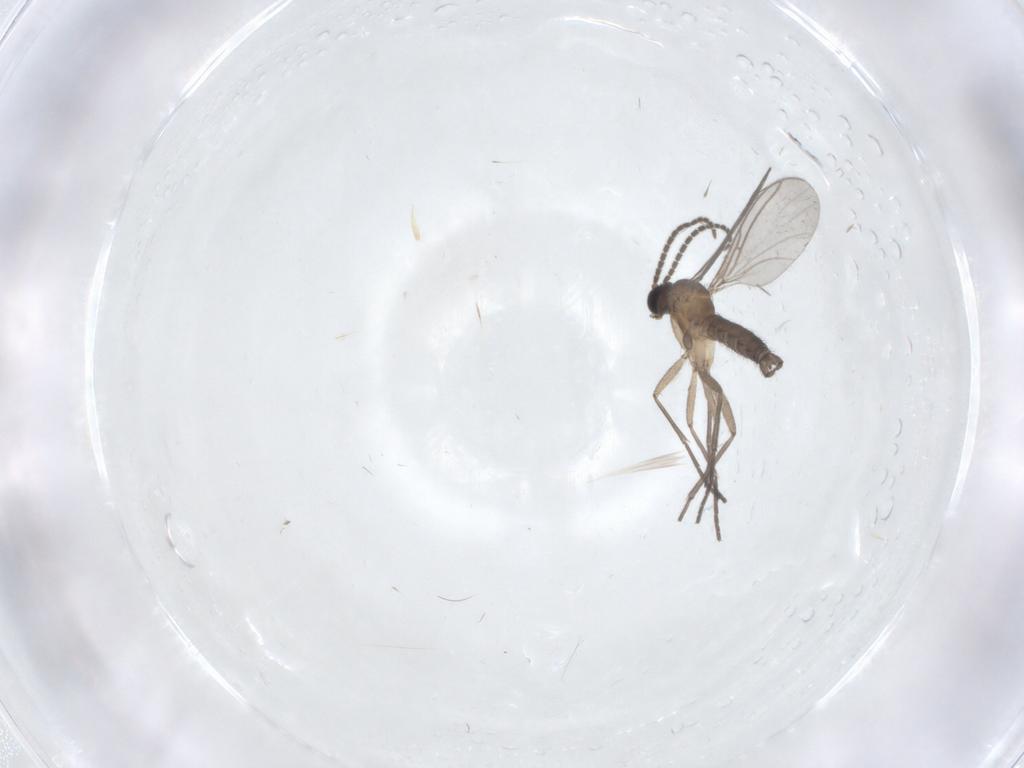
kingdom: Animalia
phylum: Arthropoda
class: Insecta
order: Diptera
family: Sciaridae
